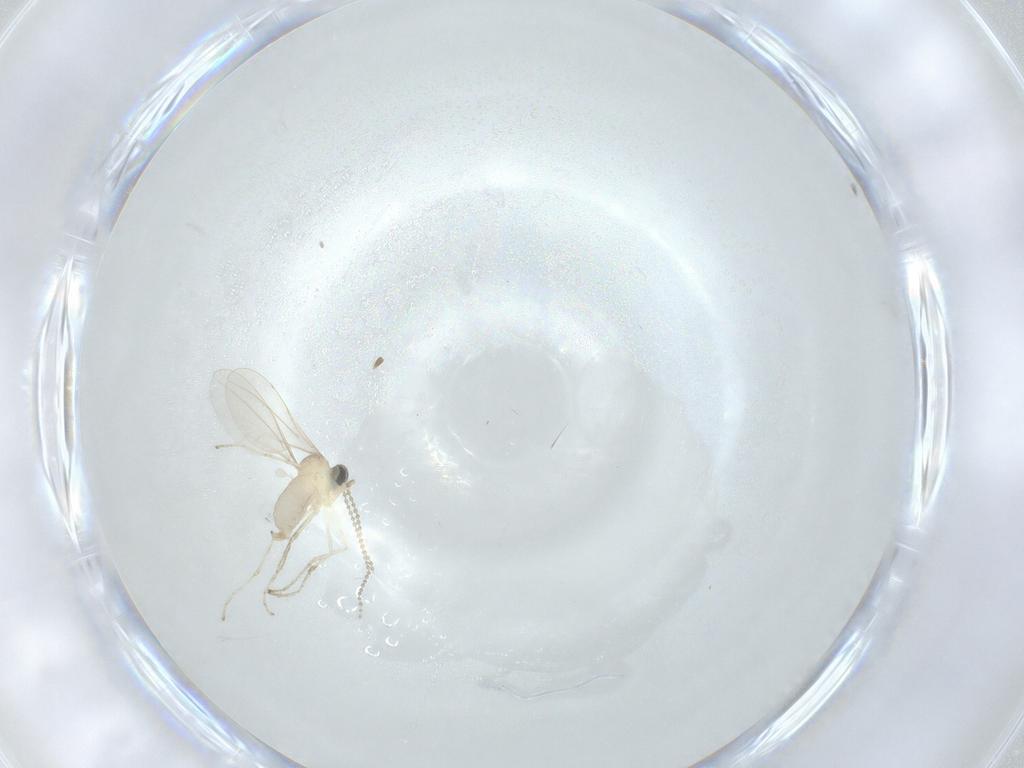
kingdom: Animalia
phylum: Arthropoda
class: Insecta
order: Diptera
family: Cecidomyiidae
